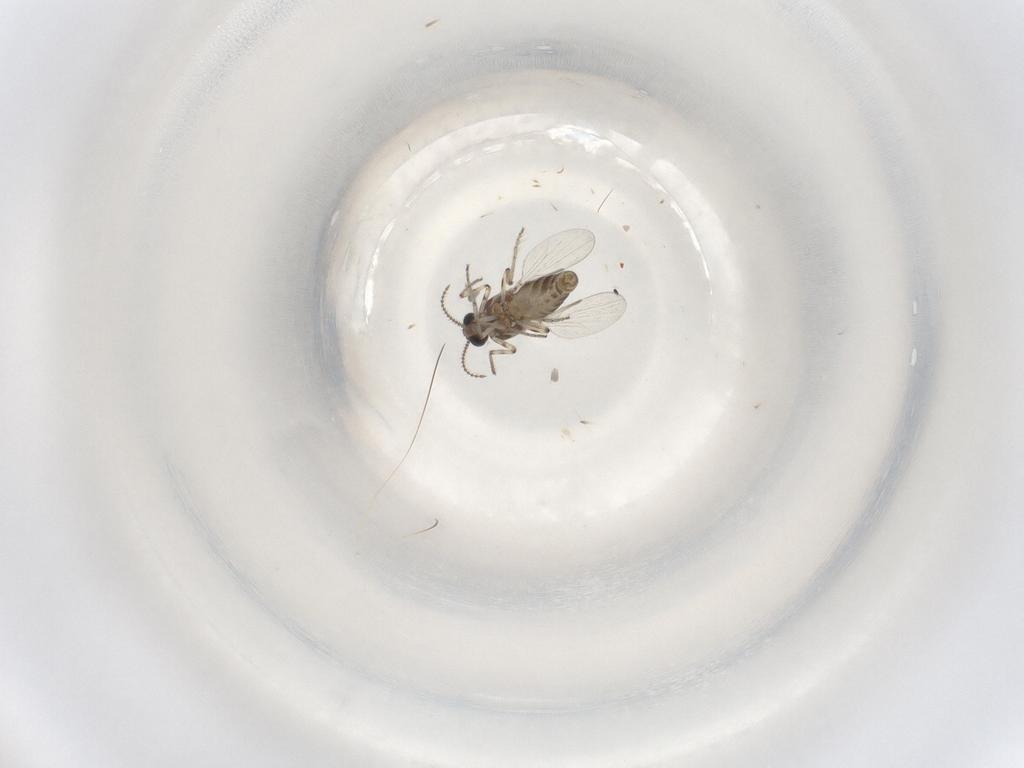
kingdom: Animalia
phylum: Arthropoda
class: Insecta
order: Diptera
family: Ceratopogonidae
